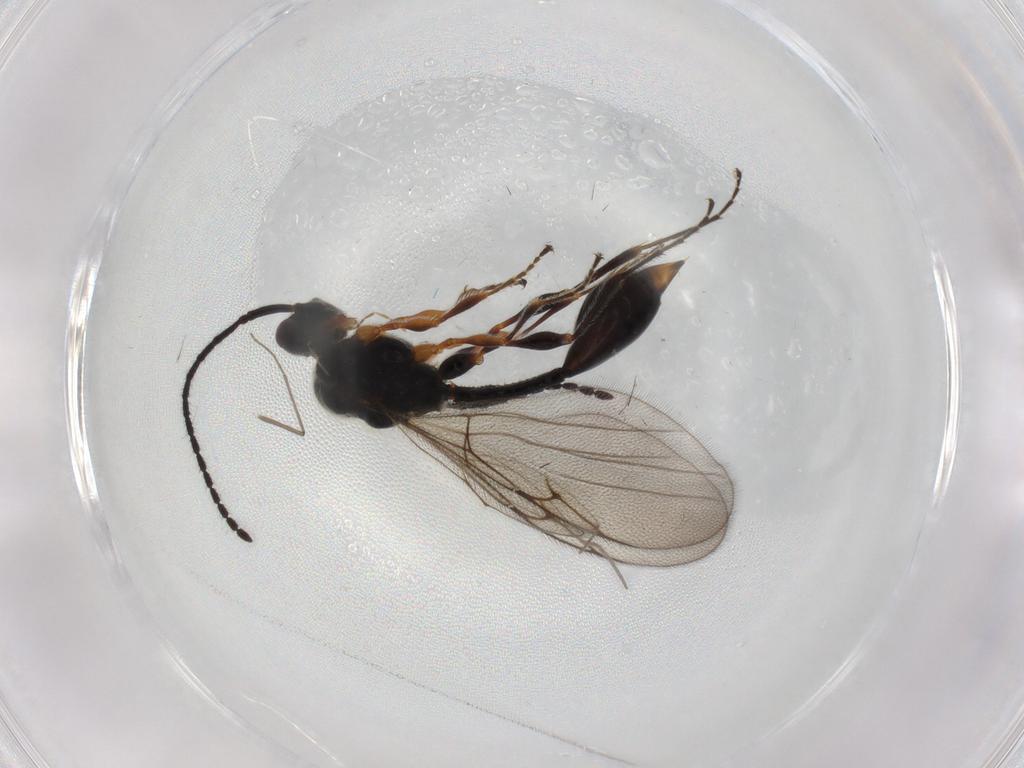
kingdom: Animalia
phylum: Arthropoda
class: Insecta
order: Hymenoptera
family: Diapriidae
